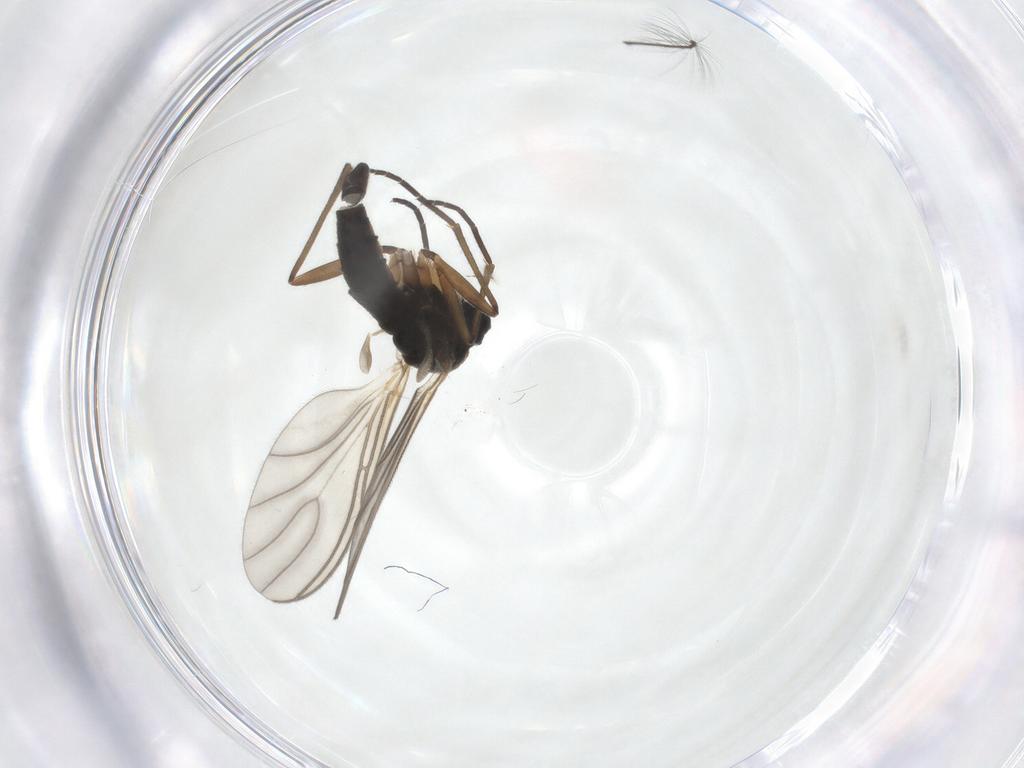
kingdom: Animalia
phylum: Arthropoda
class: Insecta
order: Diptera
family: Sciaridae
